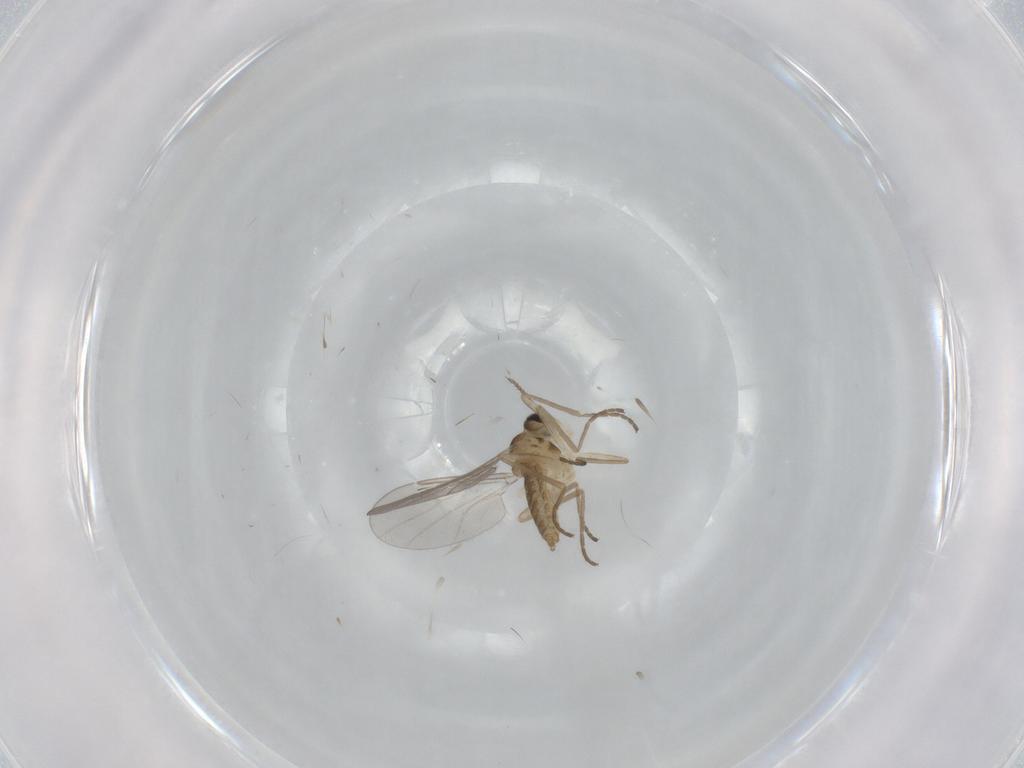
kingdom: Animalia
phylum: Arthropoda
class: Insecta
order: Diptera
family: Cecidomyiidae
